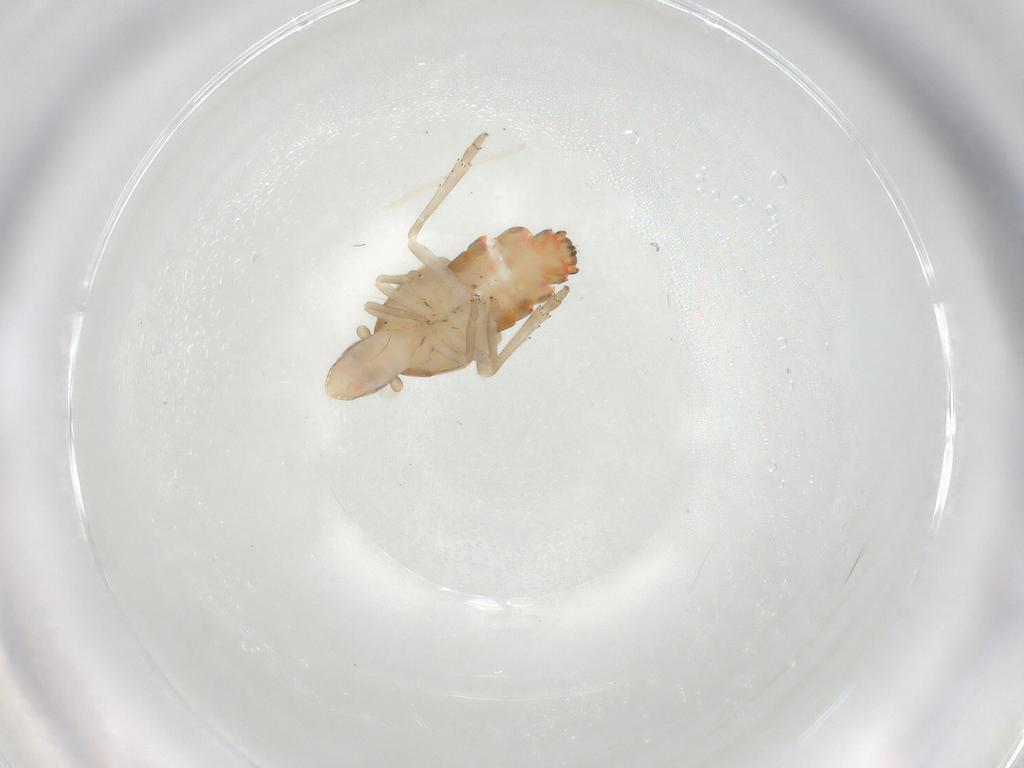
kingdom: Animalia
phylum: Arthropoda
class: Insecta
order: Hemiptera
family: Tropiduchidae
